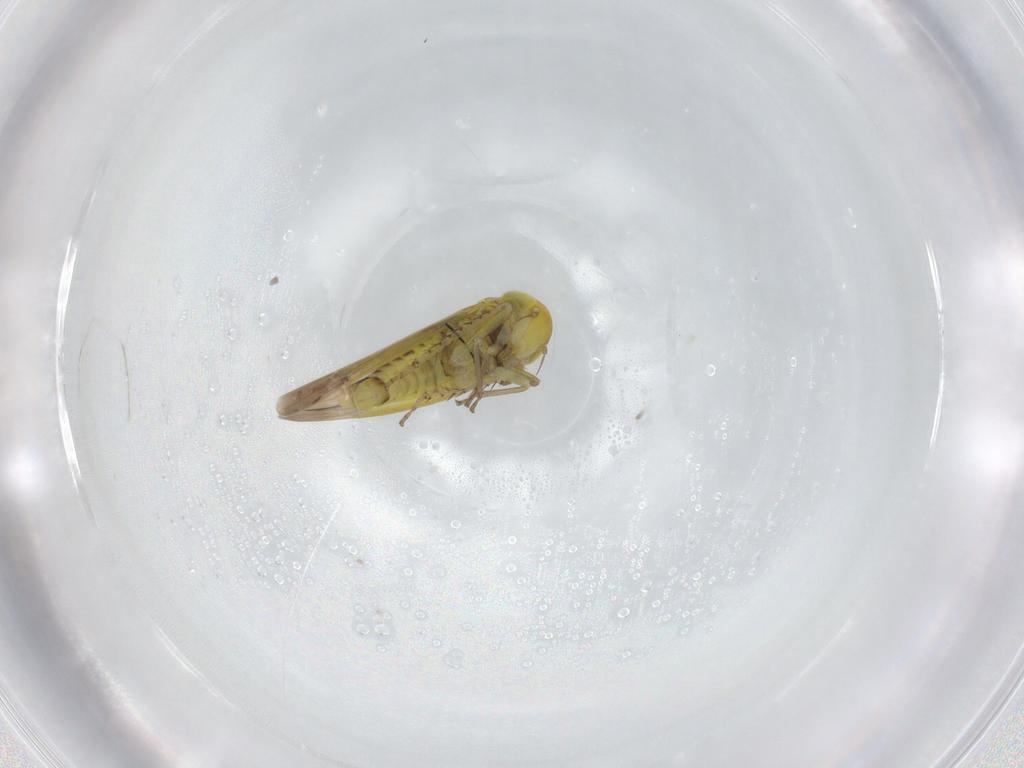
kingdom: Animalia
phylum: Arthropoda
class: Insecta
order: Hemiptera
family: Cicadellidae
